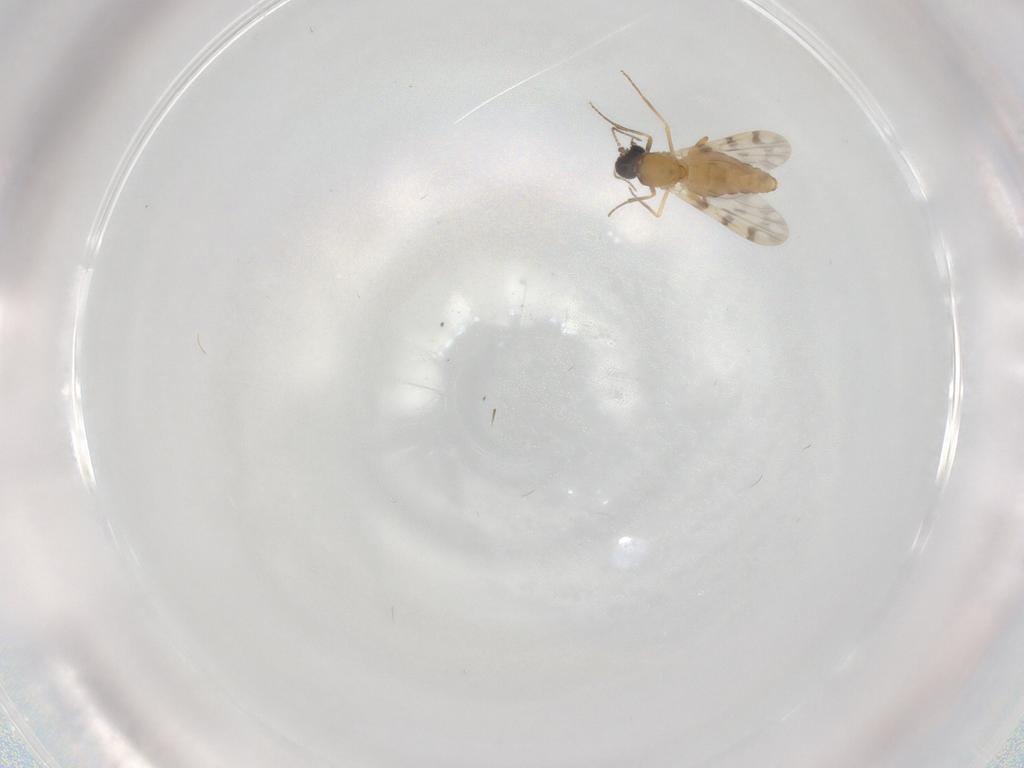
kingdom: Animalia
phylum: Arthropoda
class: Insecta
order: Diptera
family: Ceratopogonidae
